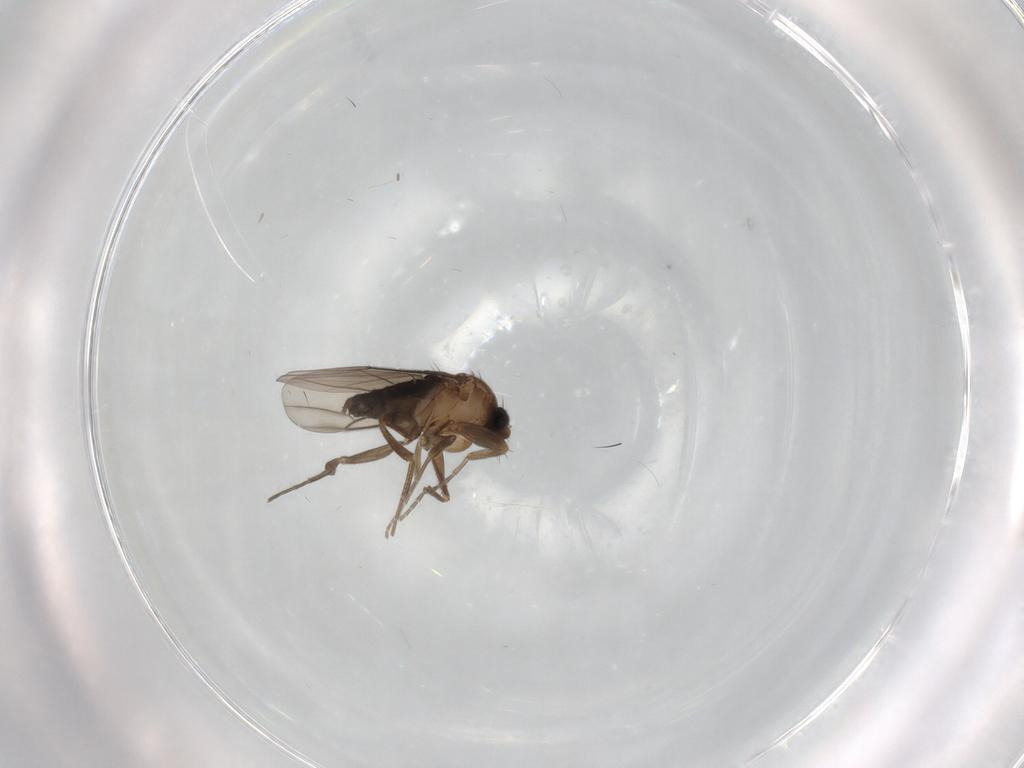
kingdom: Animalia
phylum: Arthropoda
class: Insecta
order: Diptera
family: Phoridae
